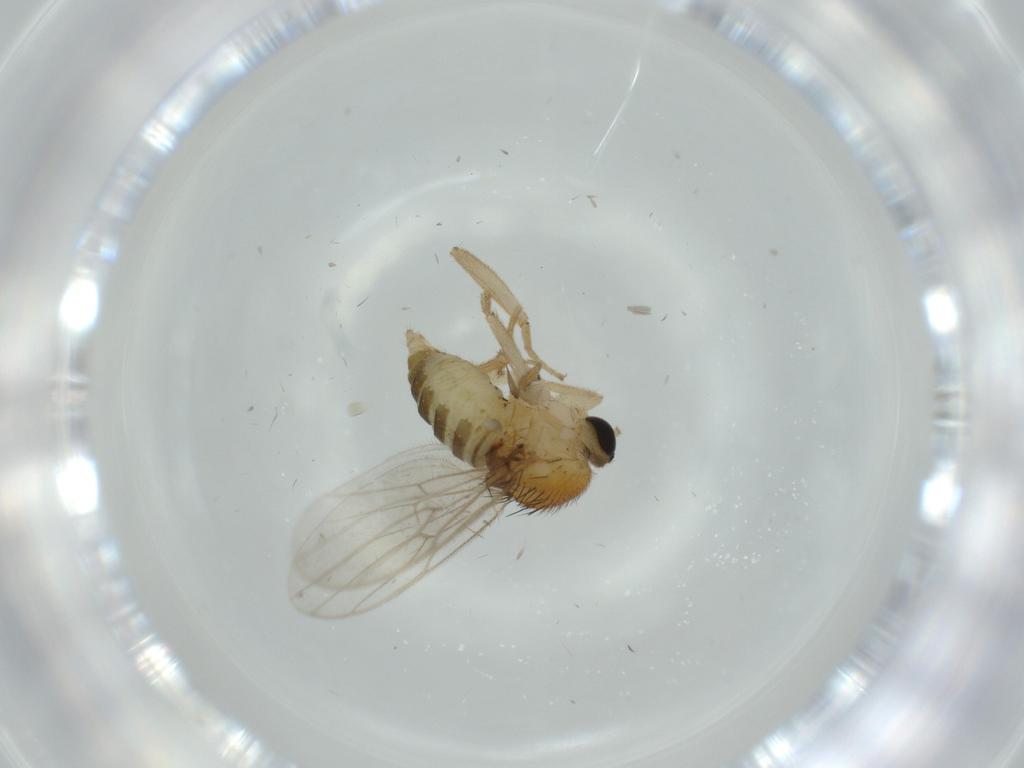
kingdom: Animalia
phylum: Arthropoda
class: Insecta
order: Diptera
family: Hybotidae
